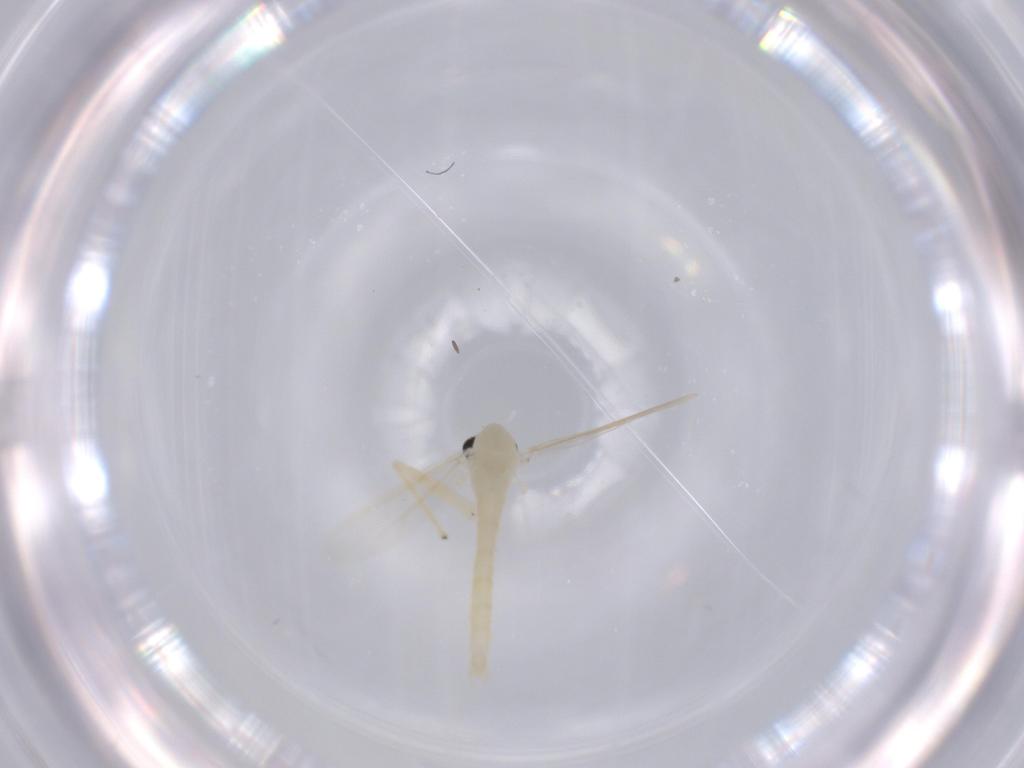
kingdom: Animalia
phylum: Arthropoda
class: Insecta
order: Diptera
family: Chironomidae
